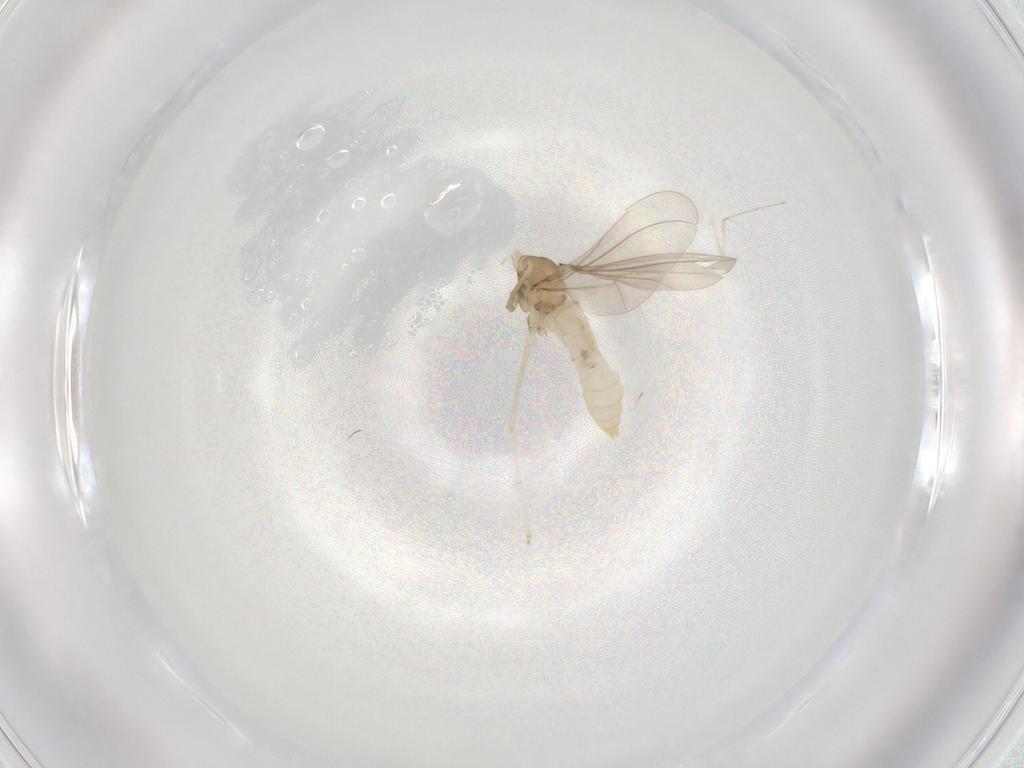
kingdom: Animalia
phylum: Arthropoda
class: Insecta
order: Diptera
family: Cecidomyiidae
